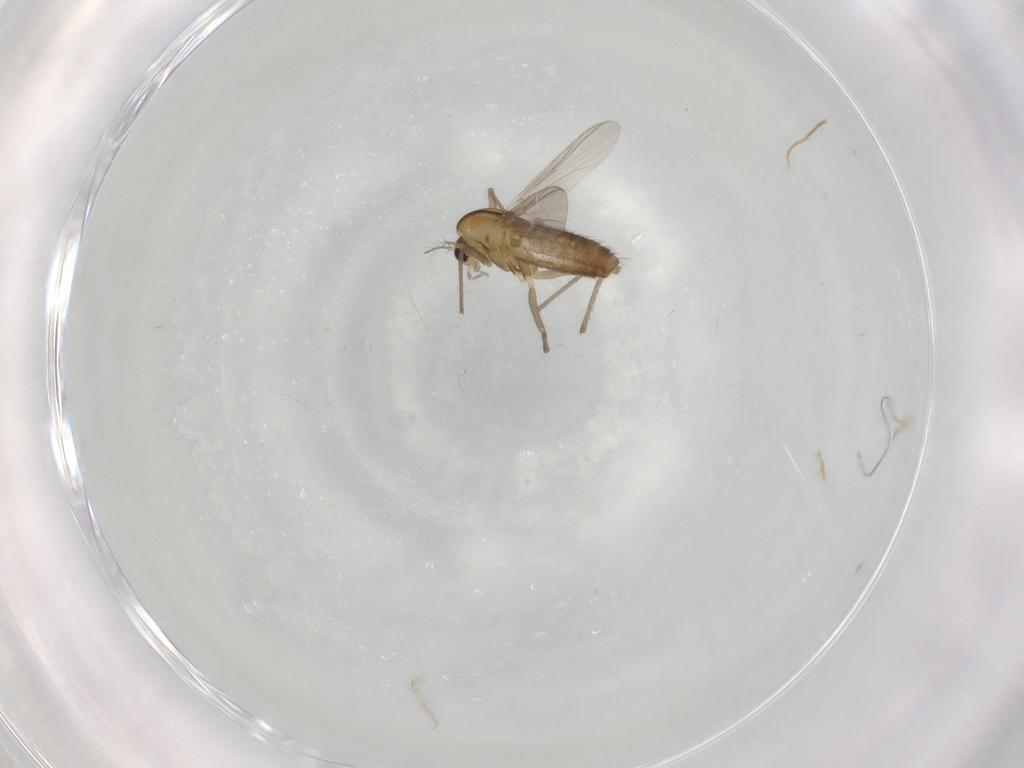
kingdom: Animalia
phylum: Arthropoda
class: Insecta
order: Diptera
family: Chironomidae
